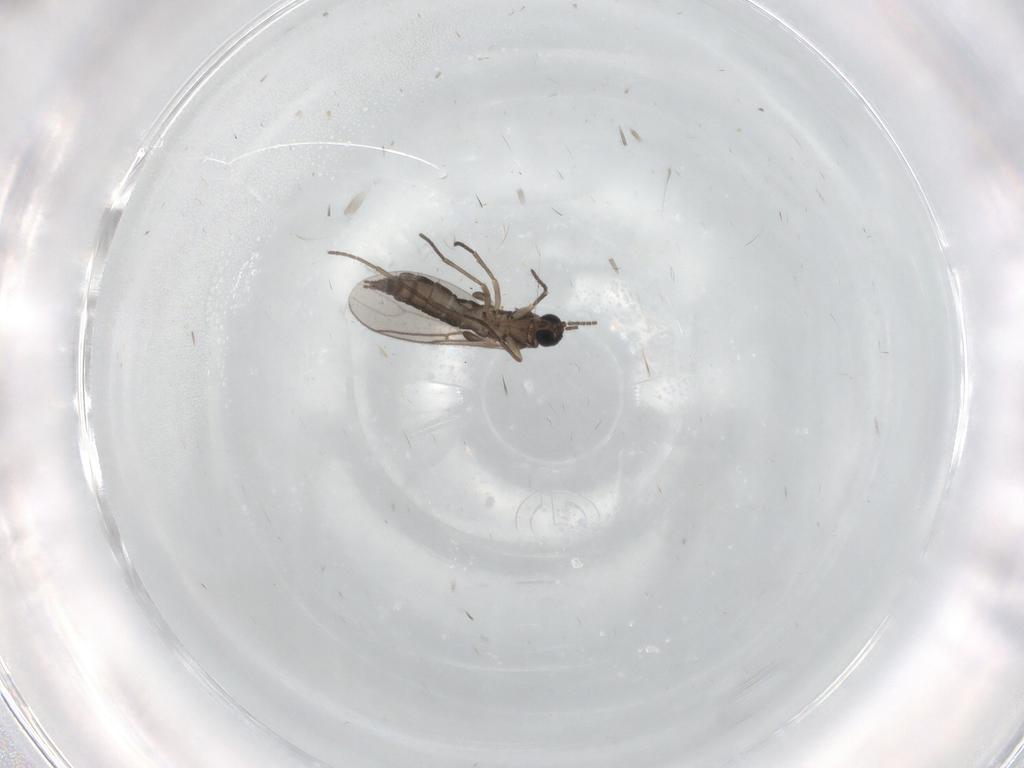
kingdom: Animalia
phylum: Arthropoda
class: Insecta
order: Diptera
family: Sciaridae
